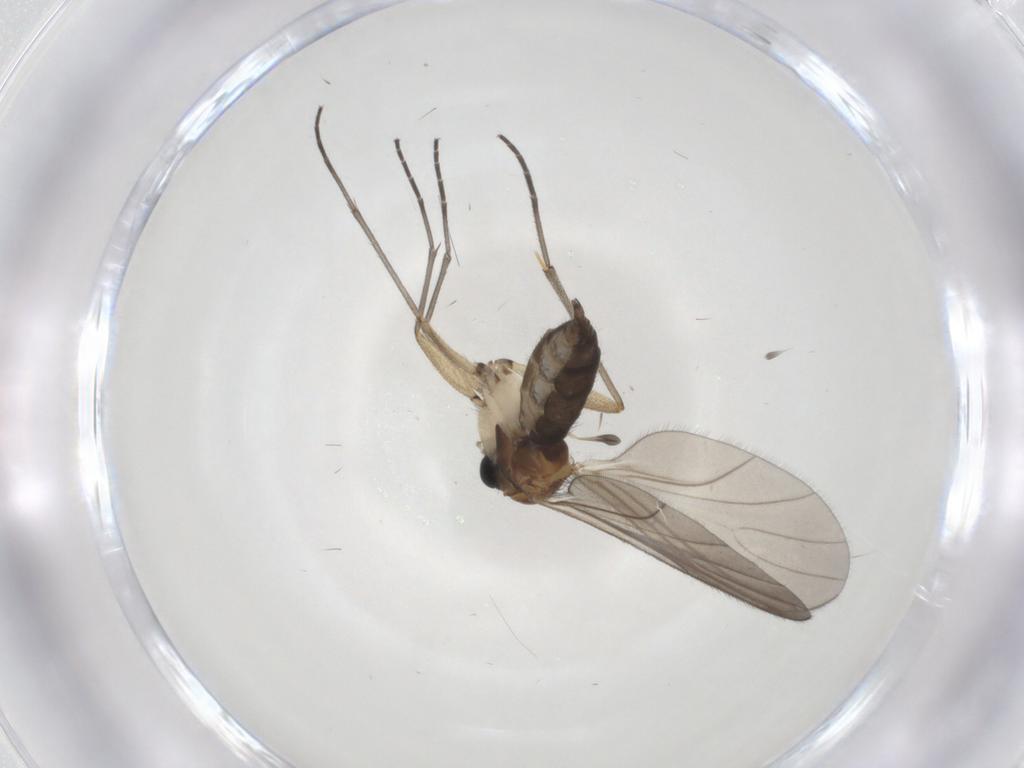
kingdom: Animalia
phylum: Arthropoda
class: Insecta
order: Diptera
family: Sciaridae
